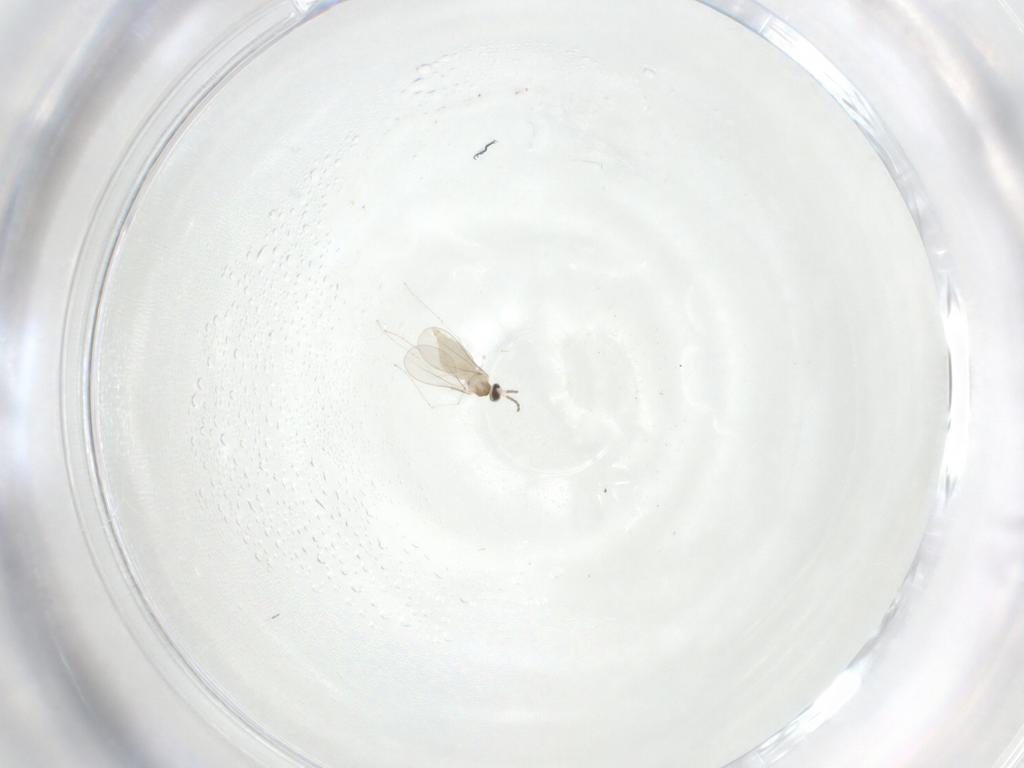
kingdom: Animalia
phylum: Arthropoda
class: Insecta
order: Diptera
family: Cecidomyiidae
